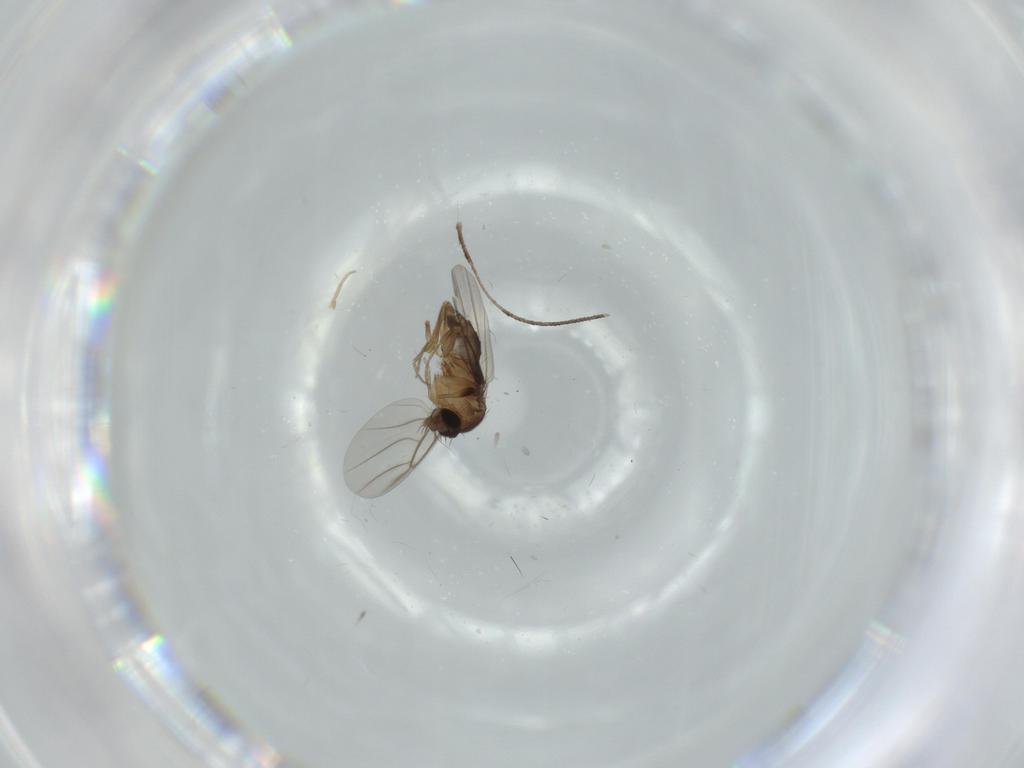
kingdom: Animalia
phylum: Arthropoda
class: Insecta
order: Diptera
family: Phoridae
